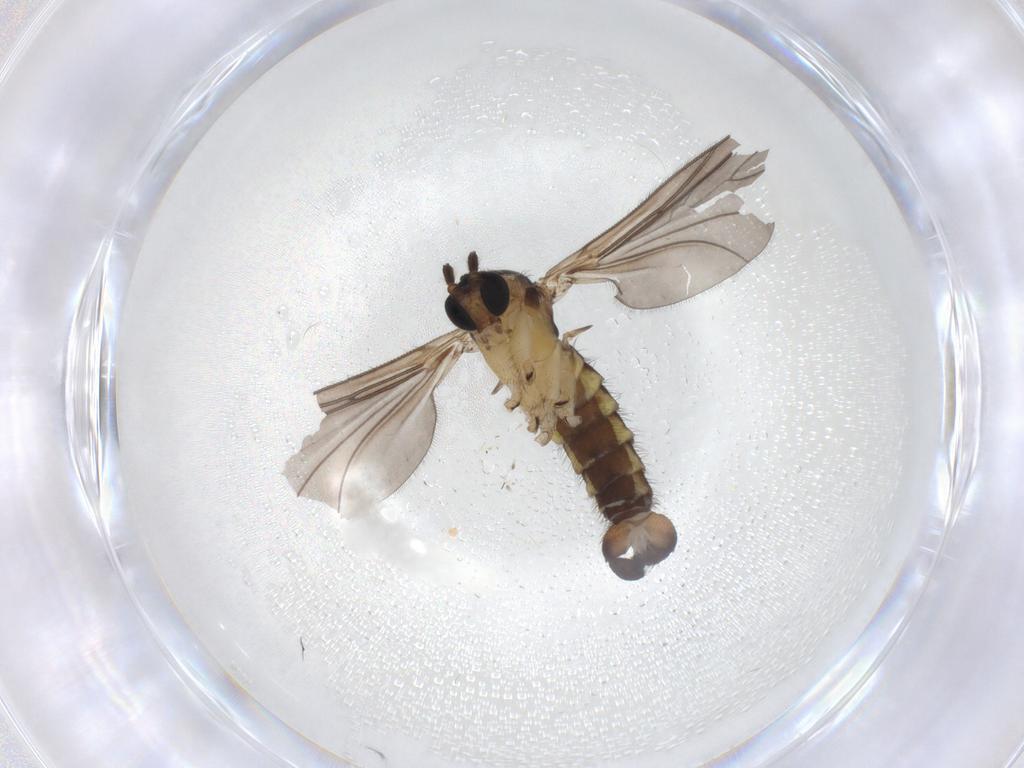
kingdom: Animalia
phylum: Arthropoda
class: Insecta
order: Diptera
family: Sciaridae
